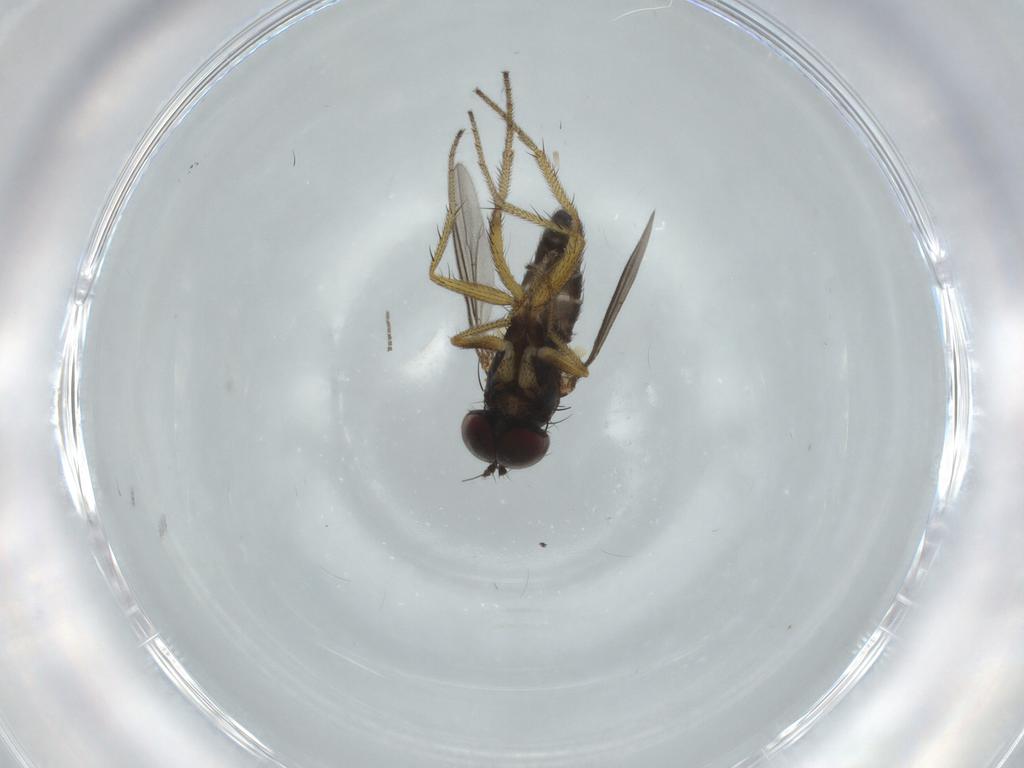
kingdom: Animalia
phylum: Arthropoda
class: Insecta
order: Diptera
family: Sciaridae
